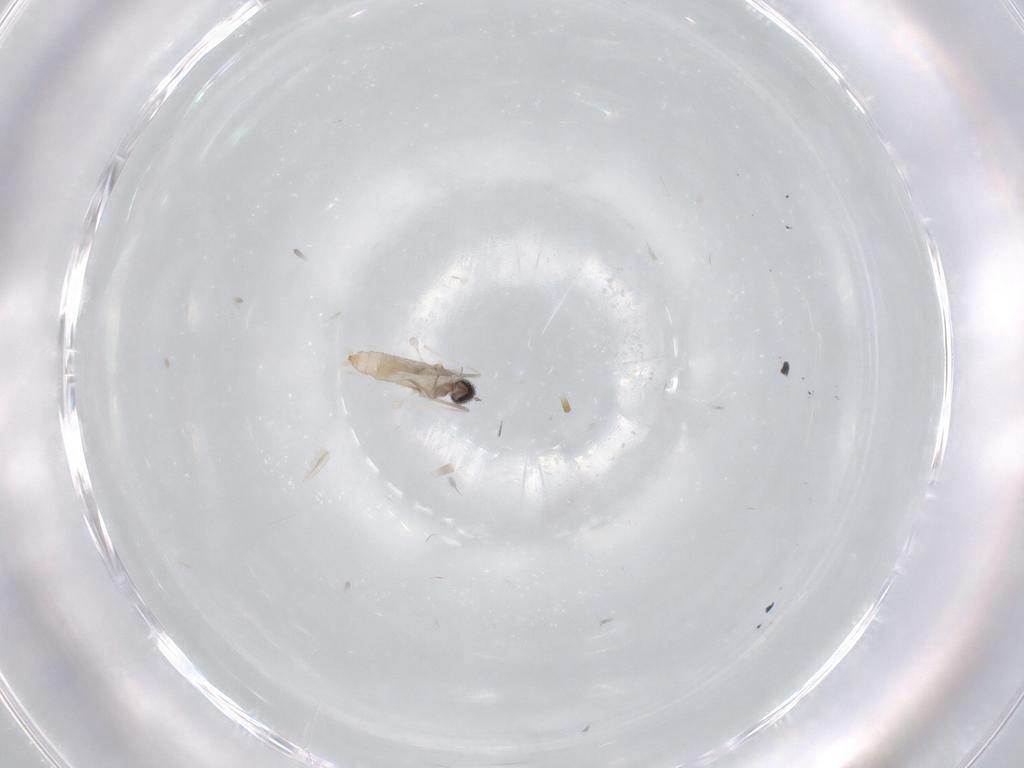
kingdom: Animalia
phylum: Arthropoda
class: Insecta
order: Diptera
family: Cecidomyiidae
